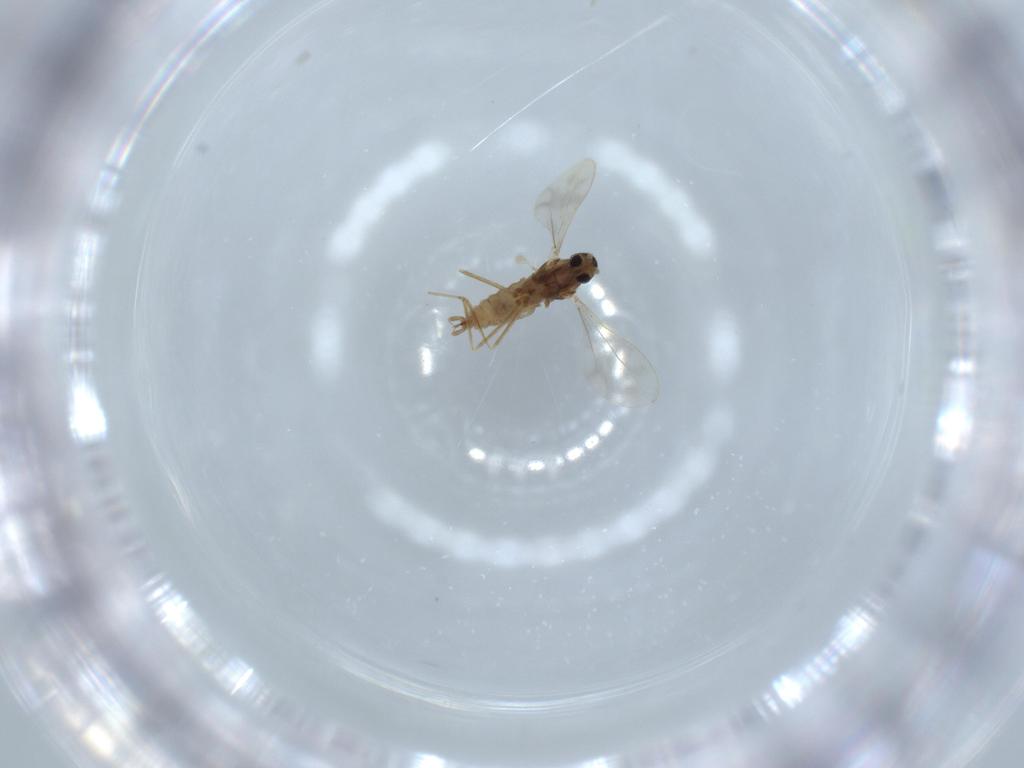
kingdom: Animalia
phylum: Arthropoda
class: Insecta
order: Diptera
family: Cecidomyiidae
